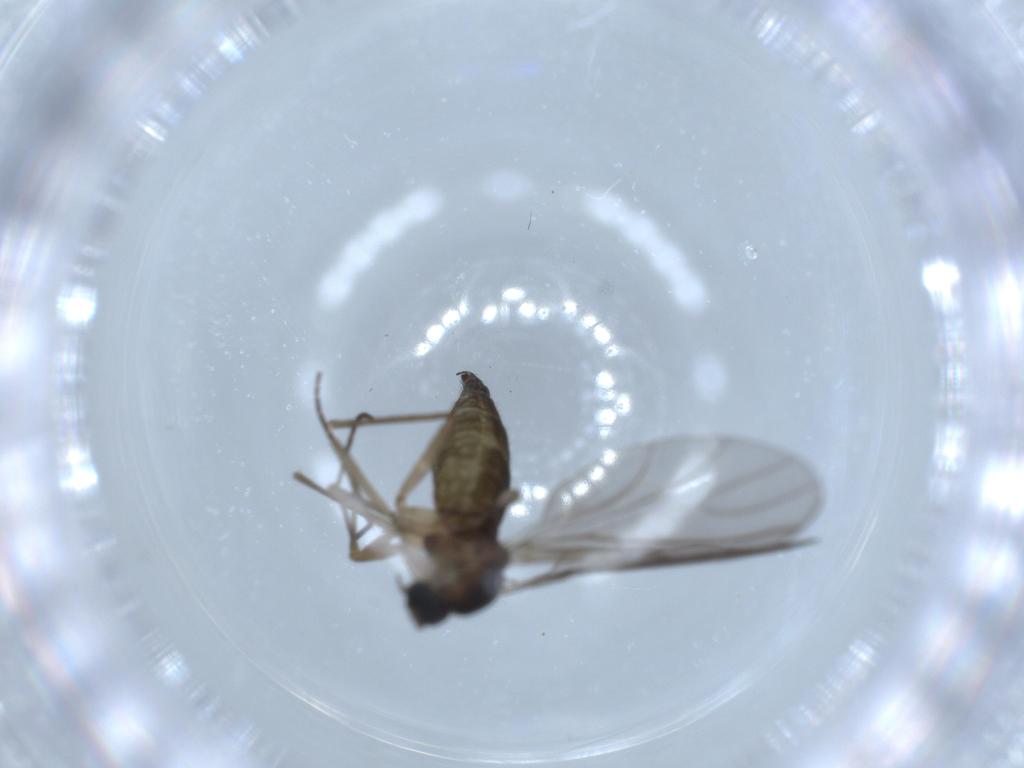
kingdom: Animalia
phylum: Arthropoda
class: Insecta
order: Diptera
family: Sciaridae
